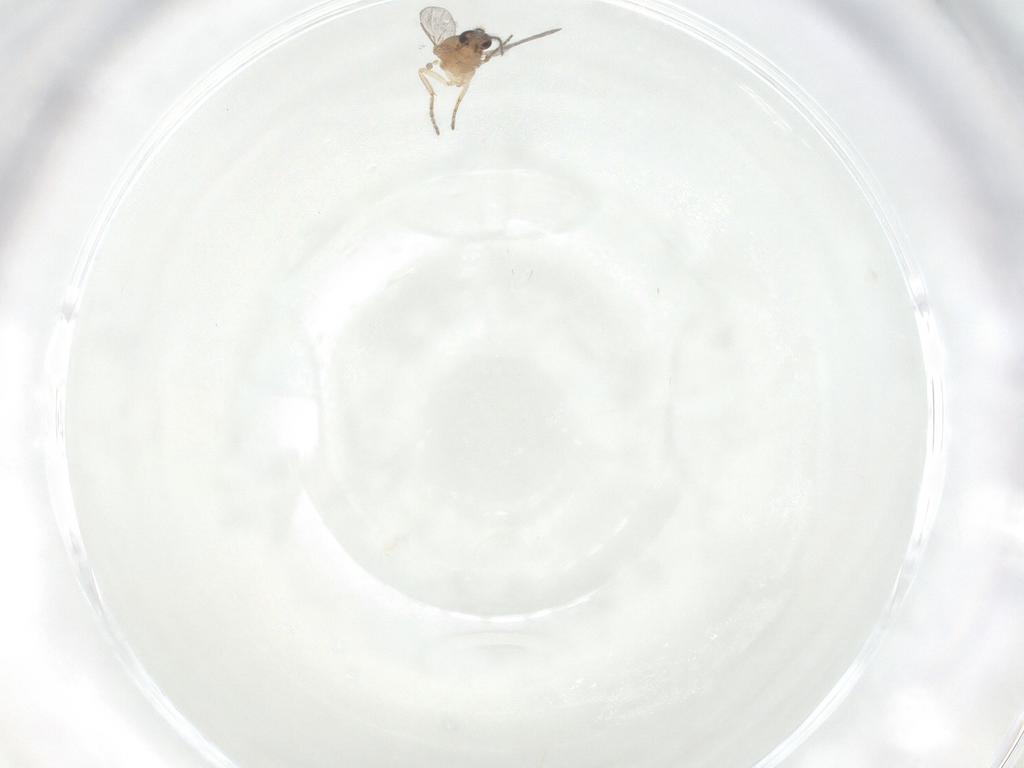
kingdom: Animalia
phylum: Arthropoda
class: Insecta
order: Diptera
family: Ceratopogonidae
